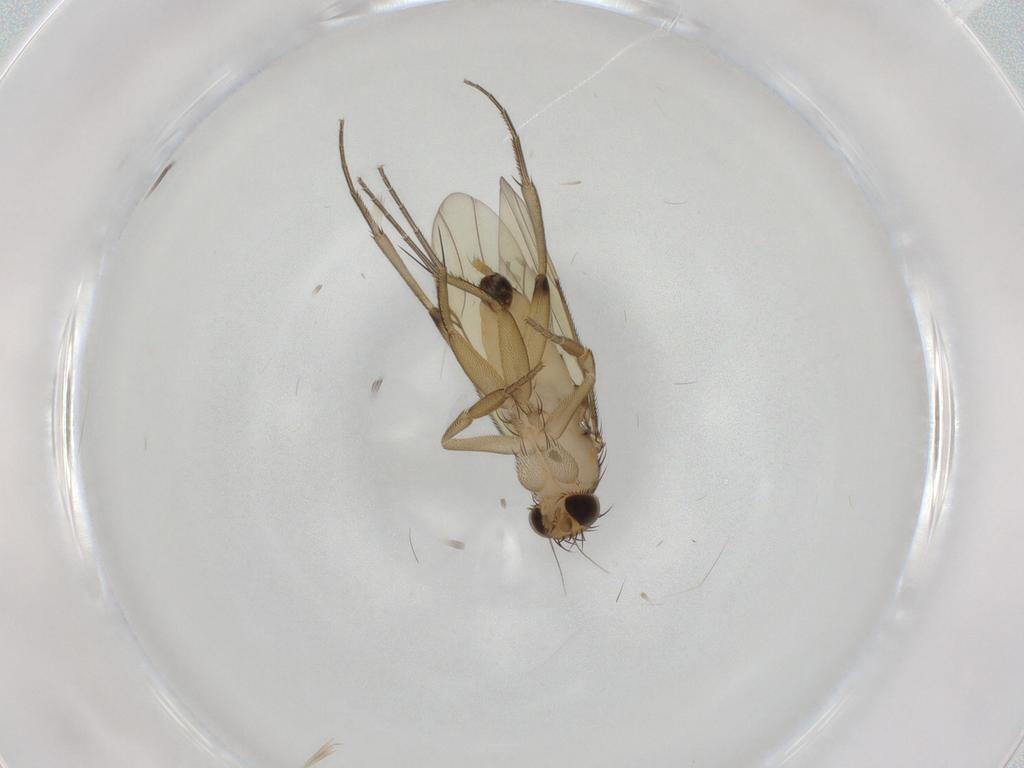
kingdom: Animalia
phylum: Arthropoda
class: Insecta
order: Diptera
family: Phoridae
